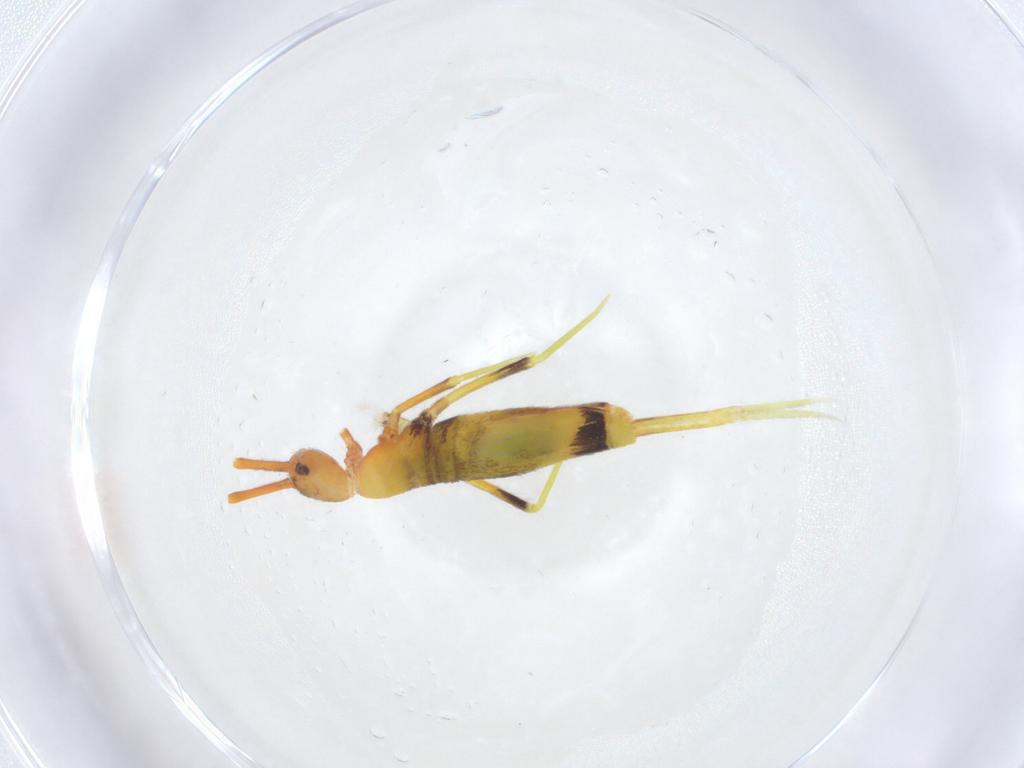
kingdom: Animalia
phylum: Arthropoda
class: Collembola
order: Entomobryomorpha
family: Entomobryidae
